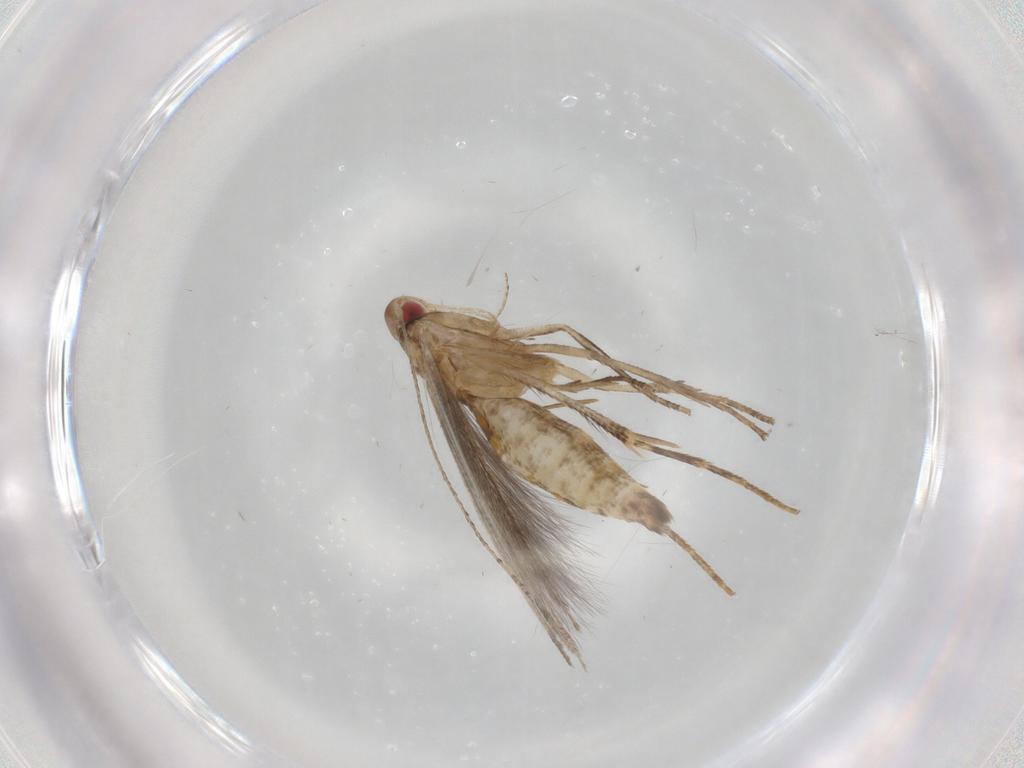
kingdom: Animalia
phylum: Arthropoda
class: Insecta
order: Lepidoptera
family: Cosmopterigidae
